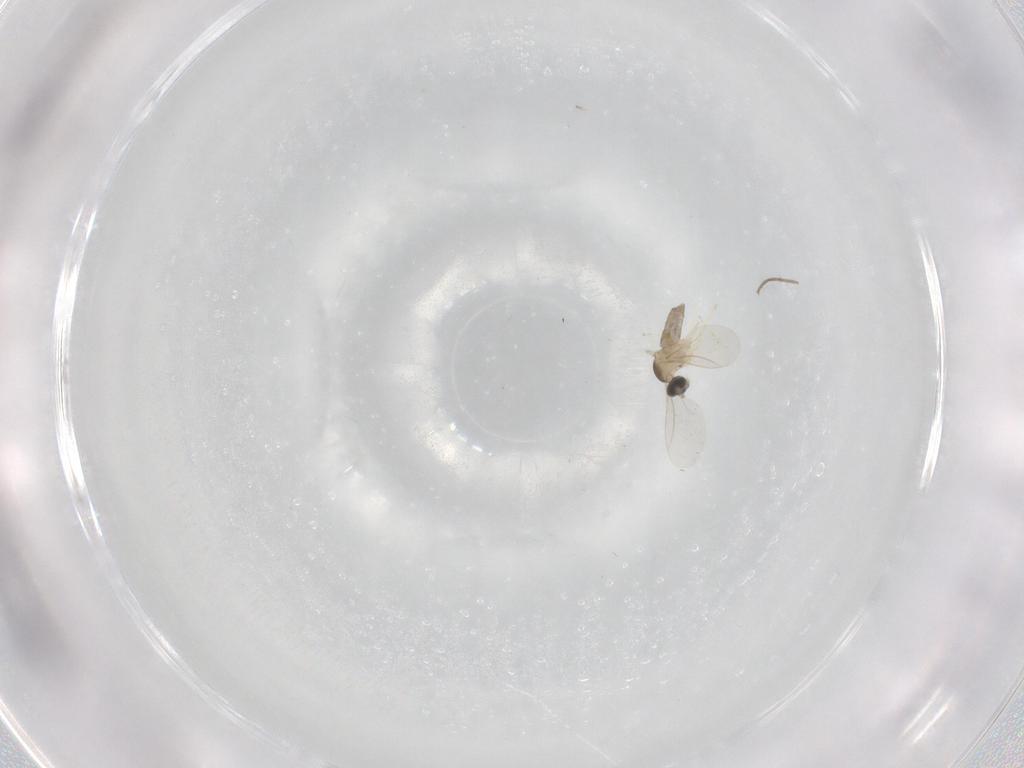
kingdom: Animalia
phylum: Arthropoda
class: Insecta
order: Diptera
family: Cecidomyiidae
